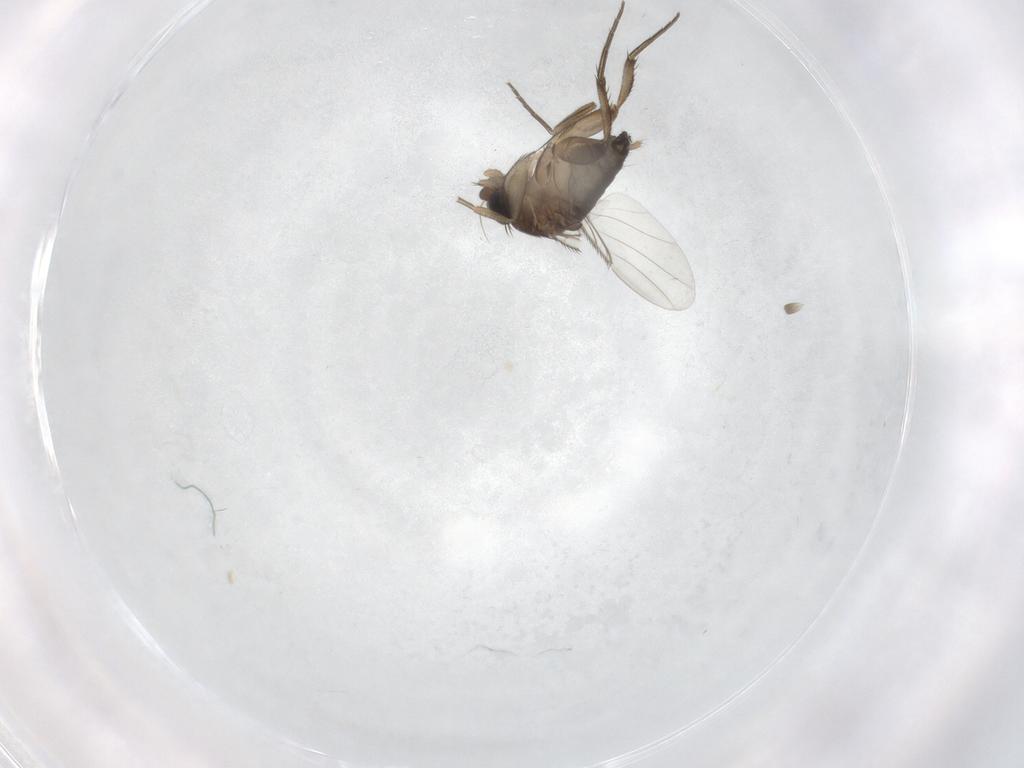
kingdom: Animalia
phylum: Arthropoda
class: Insecta
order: Diptera
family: Phoridae
